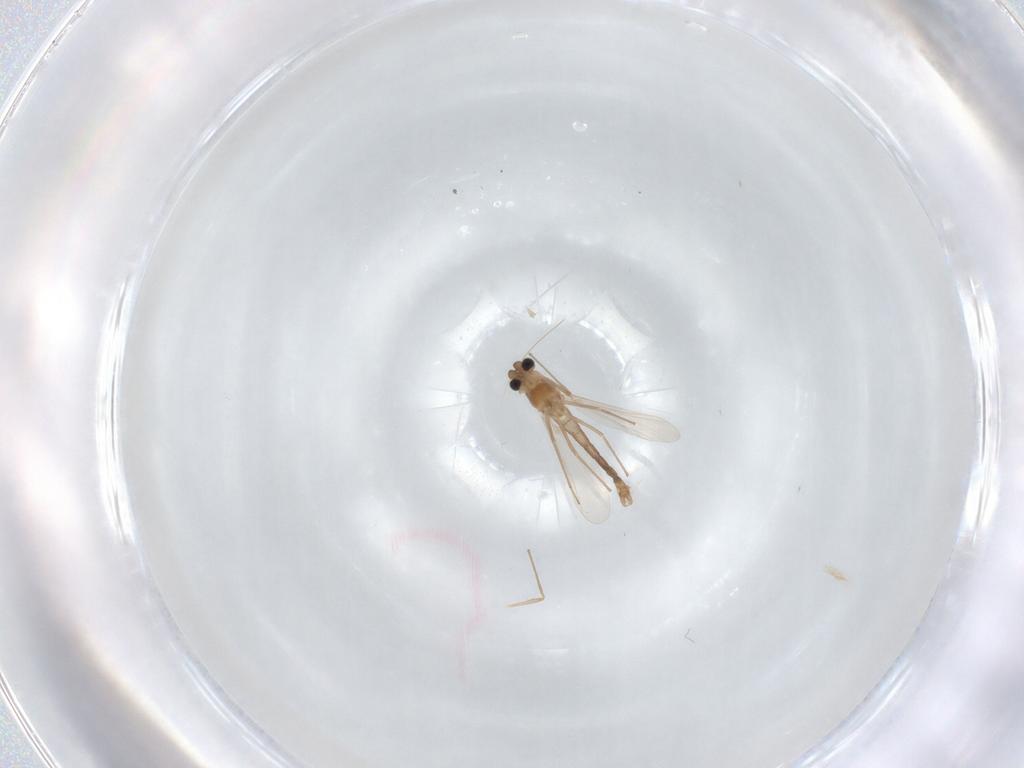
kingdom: Animalia
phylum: Arthropoda
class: Insecta
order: Diptera
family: Chironomidae
